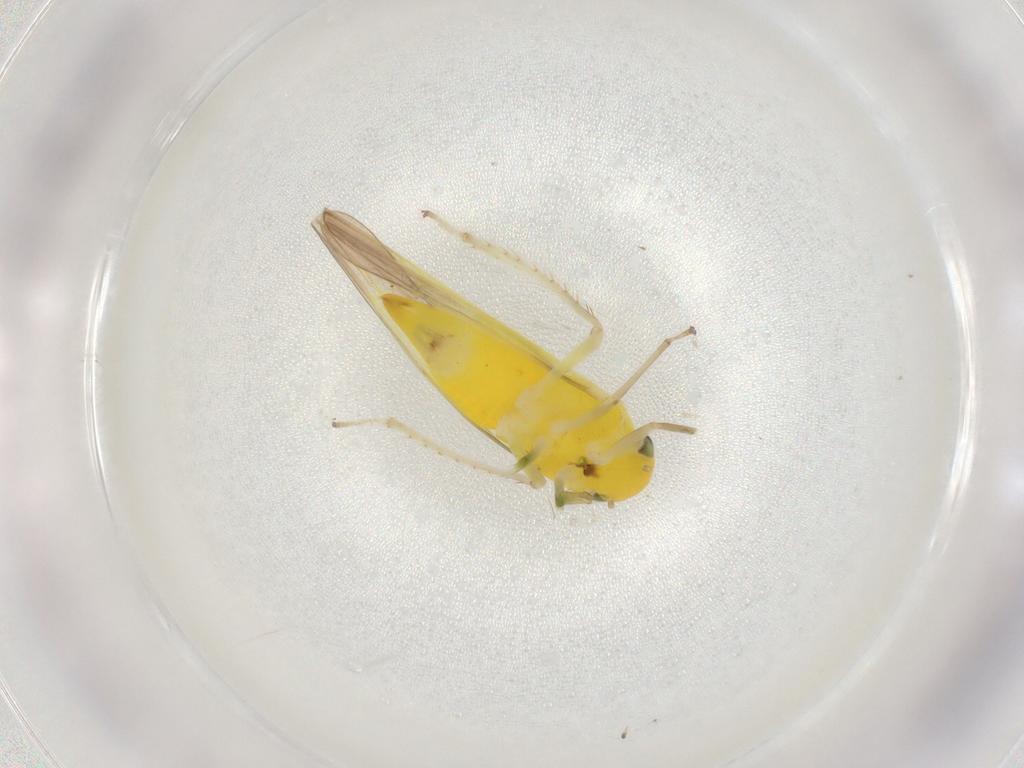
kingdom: Animalia
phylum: Arthropoda
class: Insecta
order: Hemiptera
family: Cicadellidae
